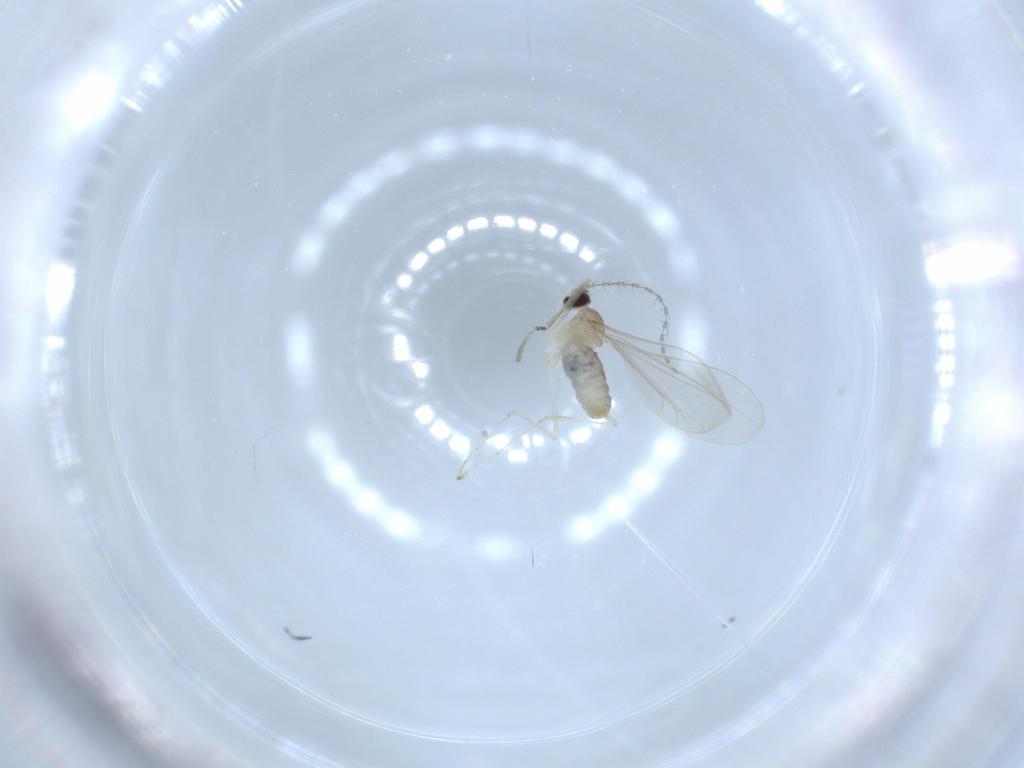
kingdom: Animalia
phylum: Arthropoda
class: Insecta
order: Diptera
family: Cecidomyiidae
